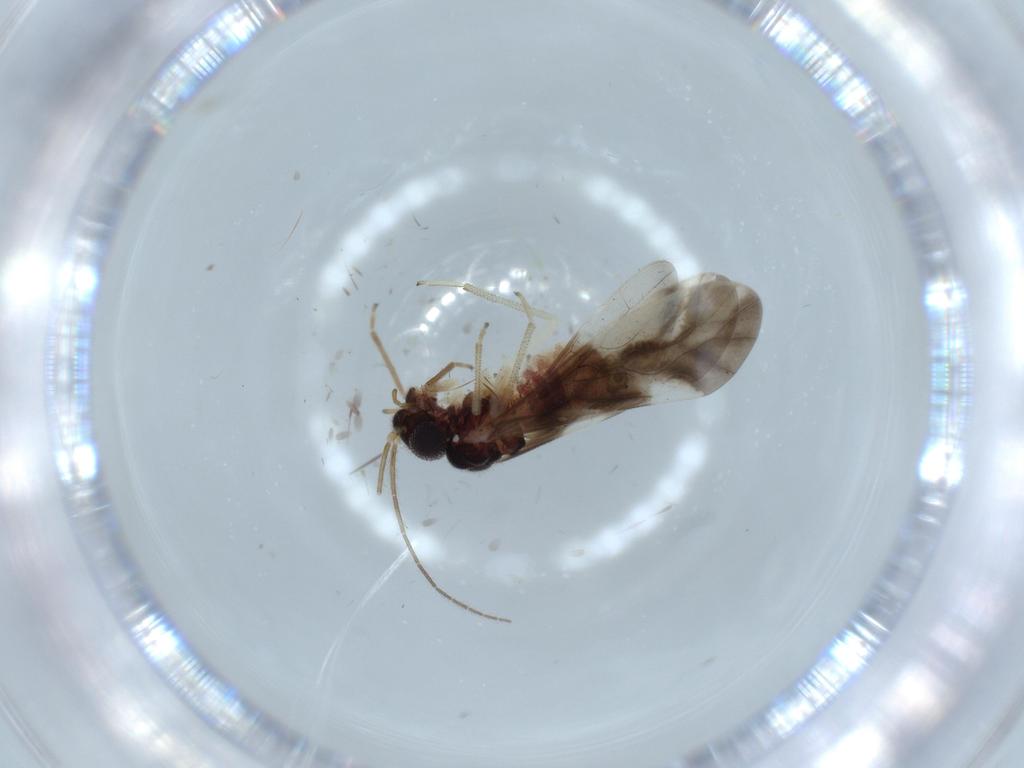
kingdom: Animalia
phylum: Arthropoda
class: Insecta
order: Psocodea
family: Caeciliusidae
